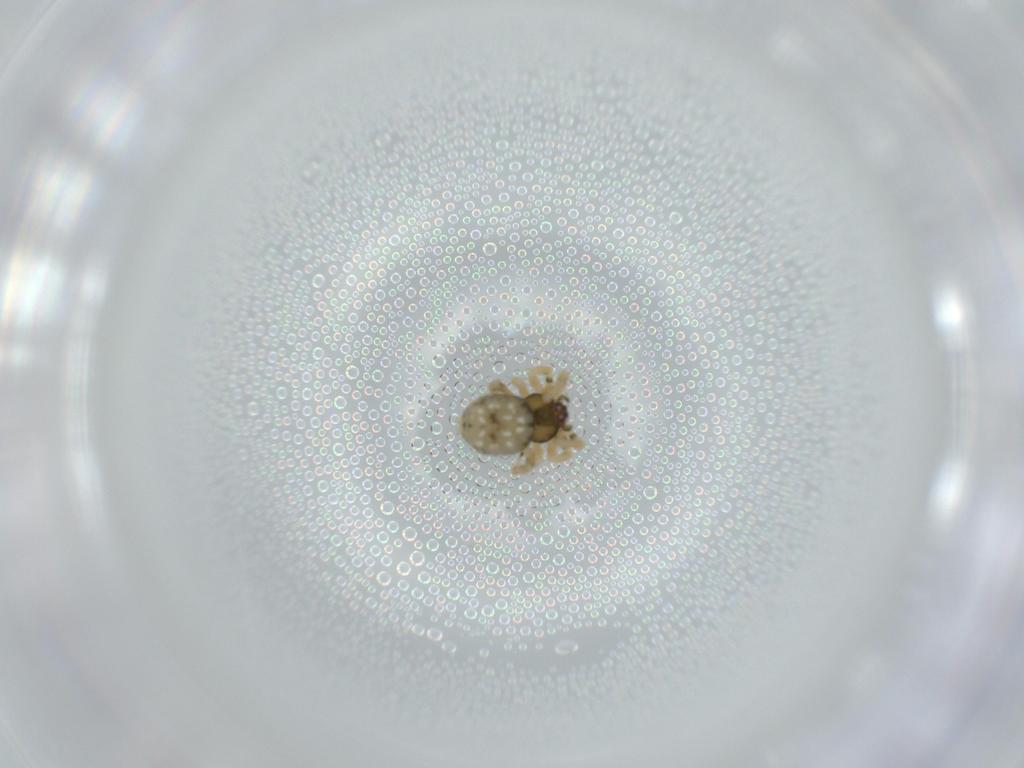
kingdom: Animalia
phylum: Arthropoda
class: Arachnida
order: Araneae
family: Theridiidae
